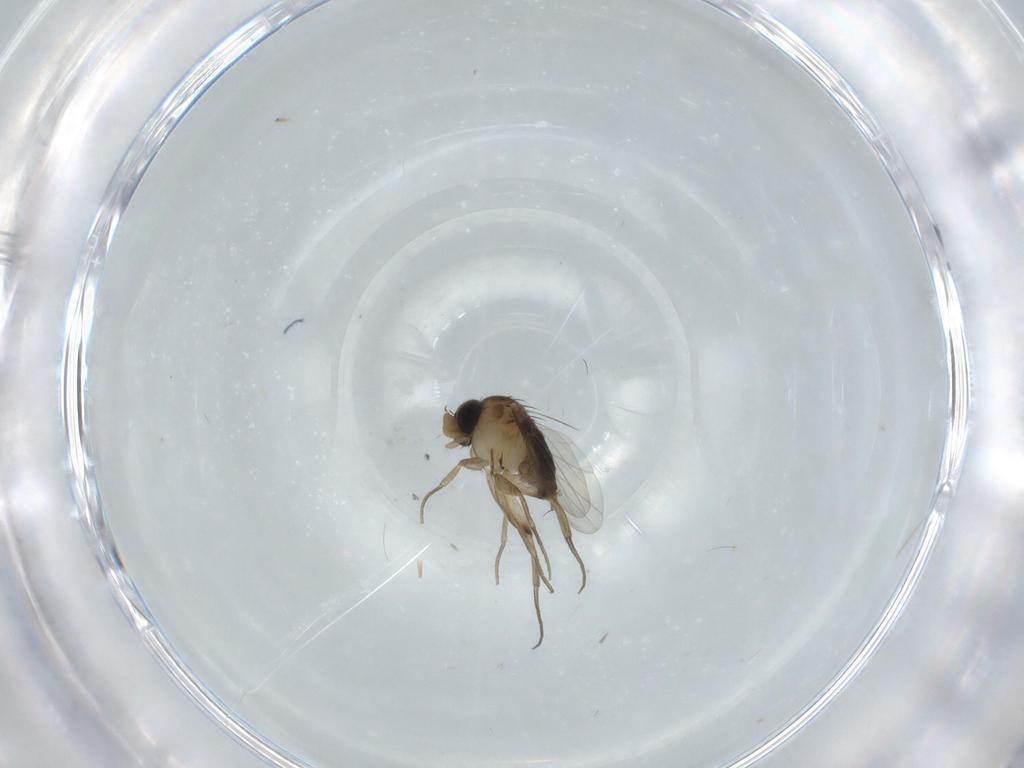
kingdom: Animalia
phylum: Arthropoda
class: Insecta
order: Diptera
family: Phoridae
